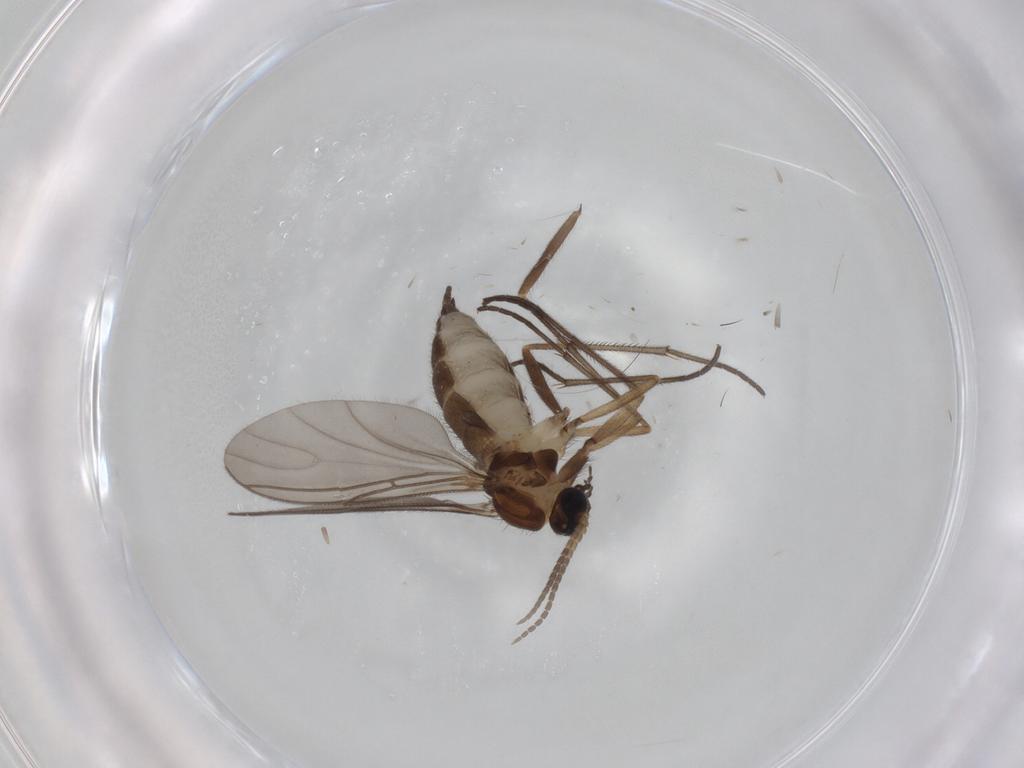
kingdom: Animalia
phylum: Arthropoda
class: Insecta
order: Diptera
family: Sciaridae
